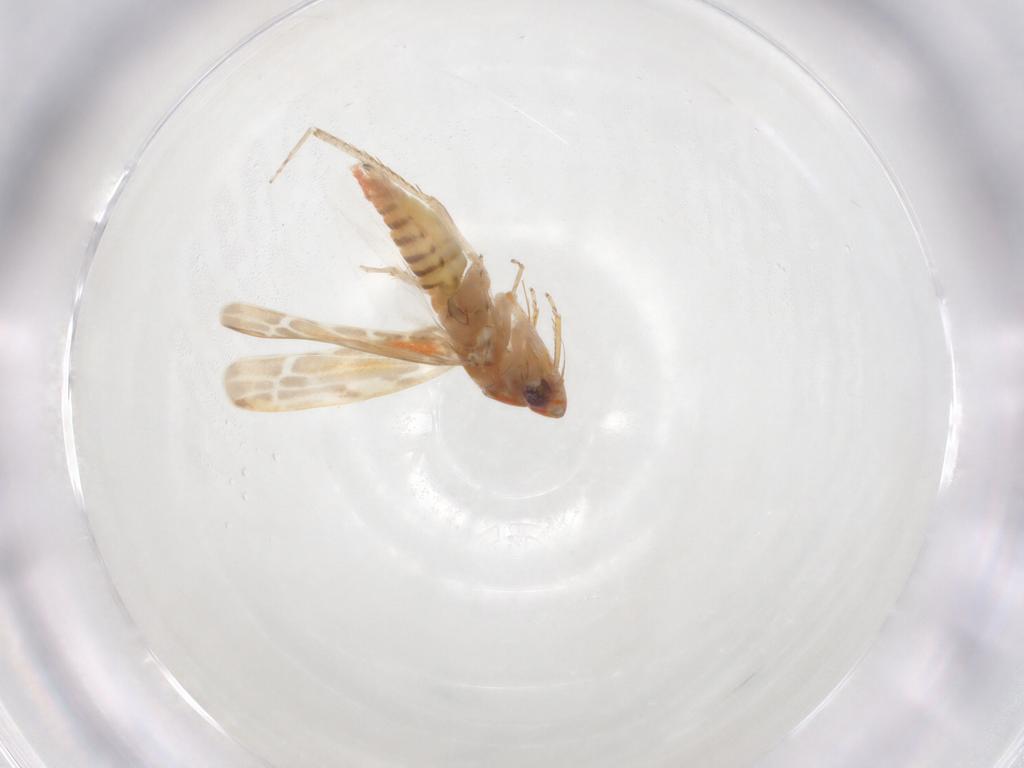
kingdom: Animalia
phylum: Arthropoda
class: Insecta
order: Hemiptera
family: Cicadellidae
